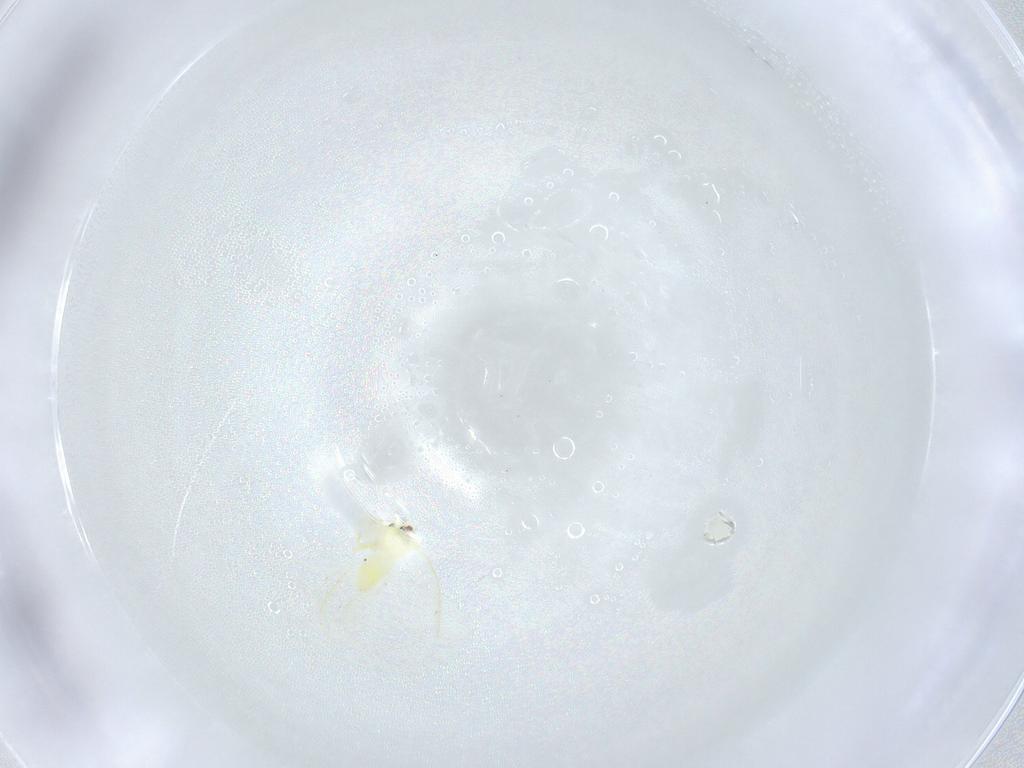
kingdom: Animalia
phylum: Arthropoda
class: Insecta
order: Hemiptera
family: Aleyrodidae
